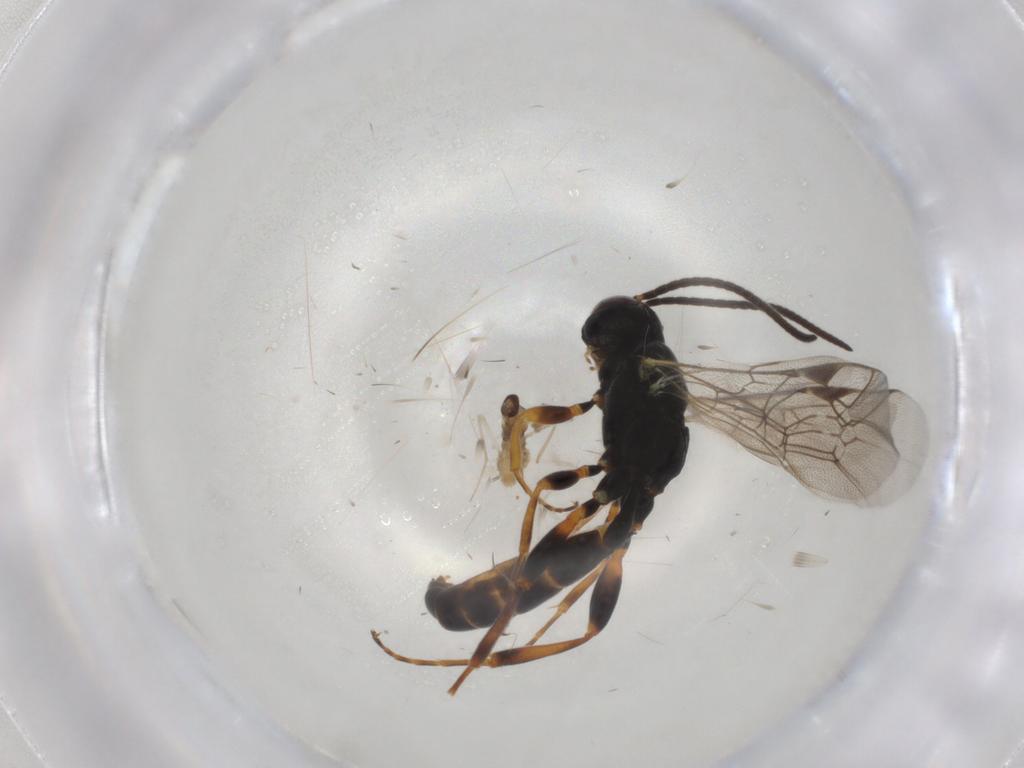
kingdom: Animalia
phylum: Arthropoda
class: Insecta
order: Diptera
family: Cecidomyiidae
